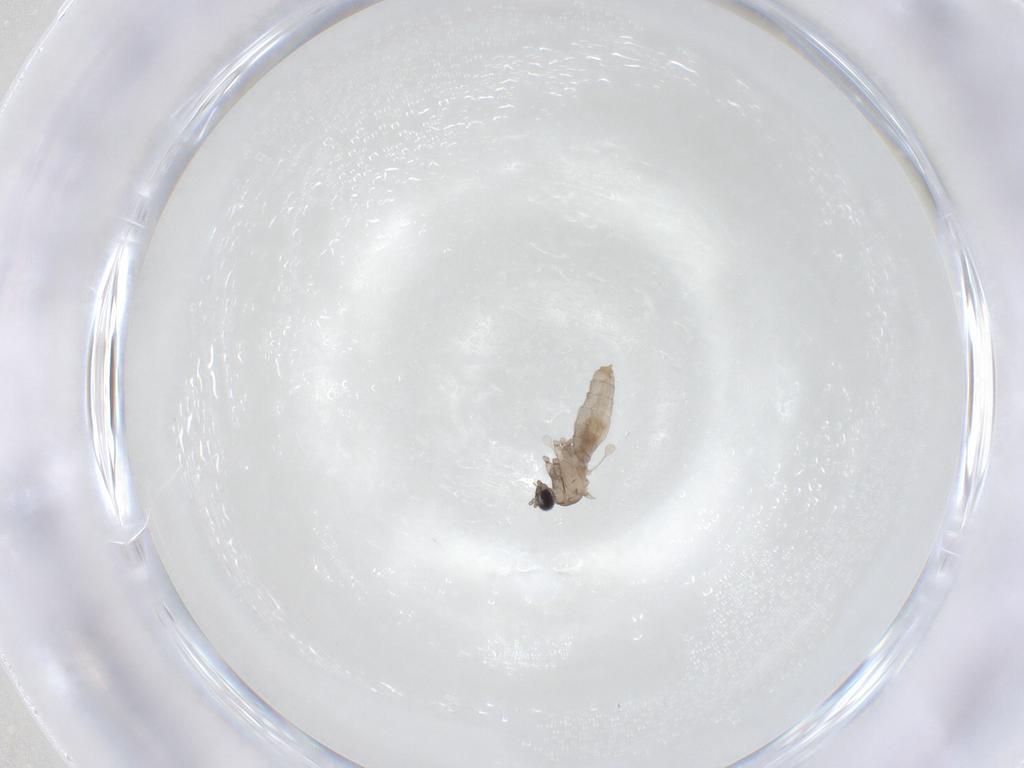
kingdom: Animalia
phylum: Arthropoda
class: Insecta
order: Diptera
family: Cecidomyiidae
